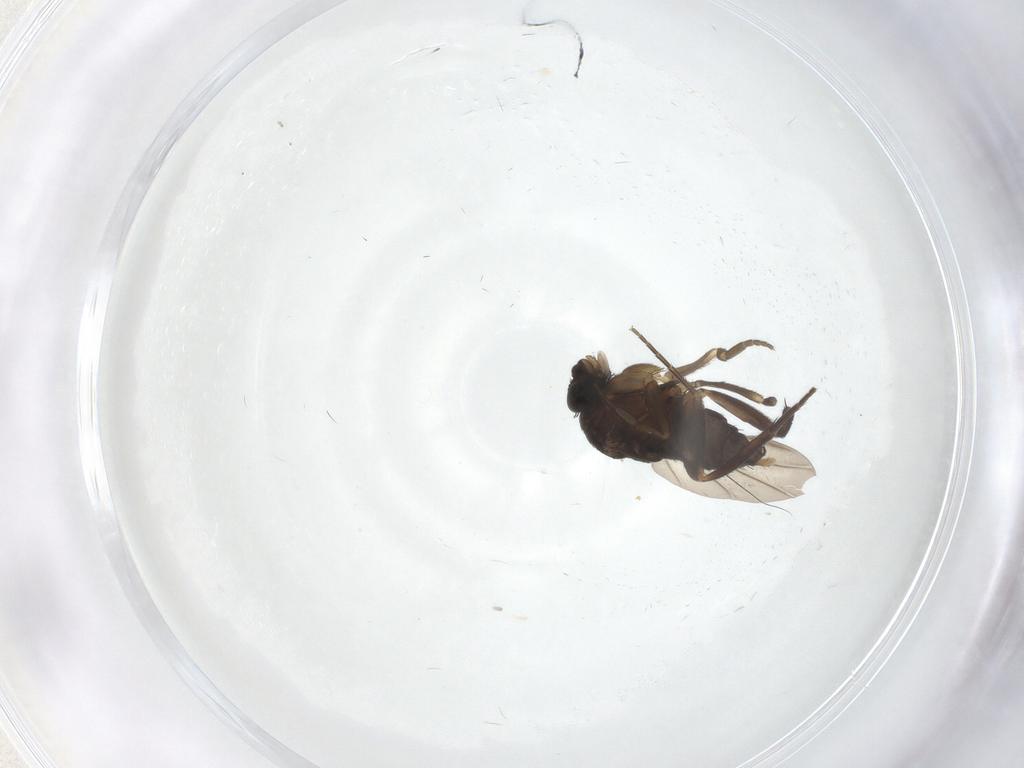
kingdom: Animalia
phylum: Arthropoda
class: Insecta
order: Diptera
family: Phoridae
